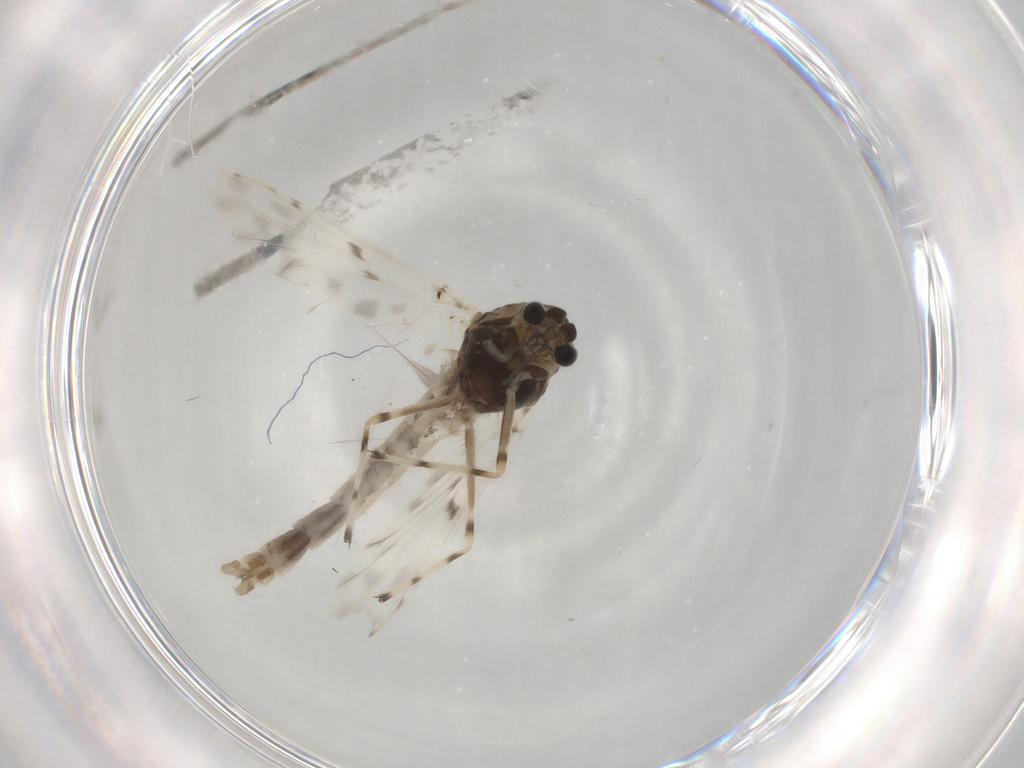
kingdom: Animalia
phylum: Arthropoda
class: Insecta
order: Diptera
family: Chironomidae
